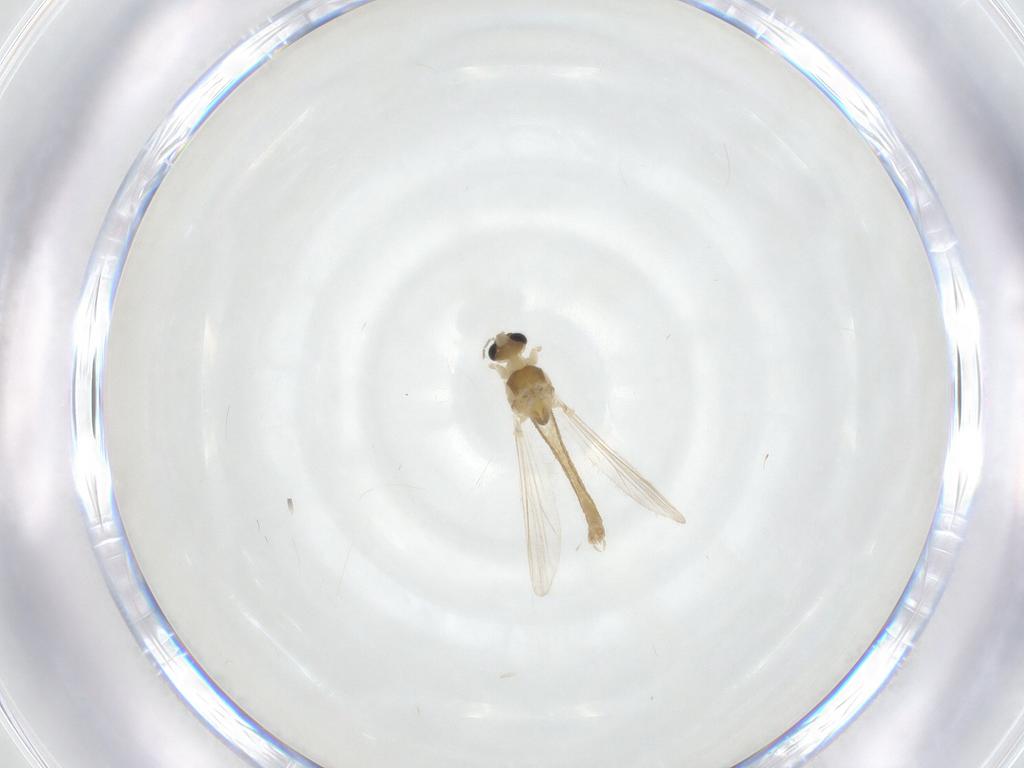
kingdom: Animalia
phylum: Arthropoda
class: Insecta
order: Diptera
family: Chironomidae
